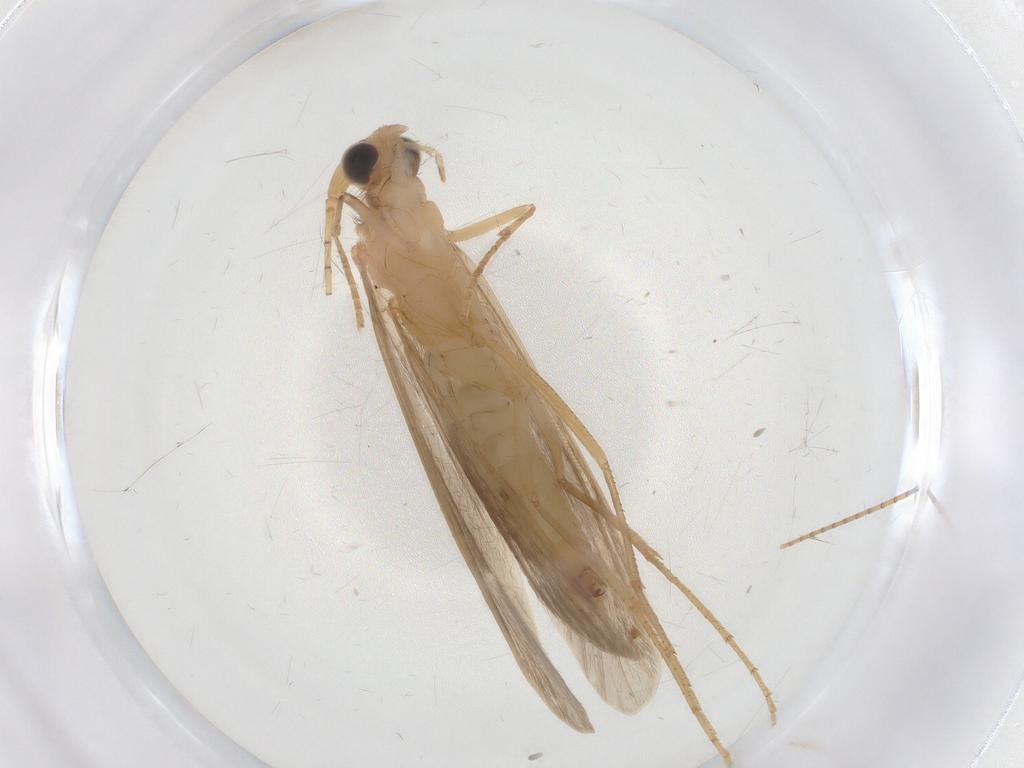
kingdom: Animalia
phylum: Arthropoda
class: Insecta
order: Trichoptera
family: Leptoceridae
